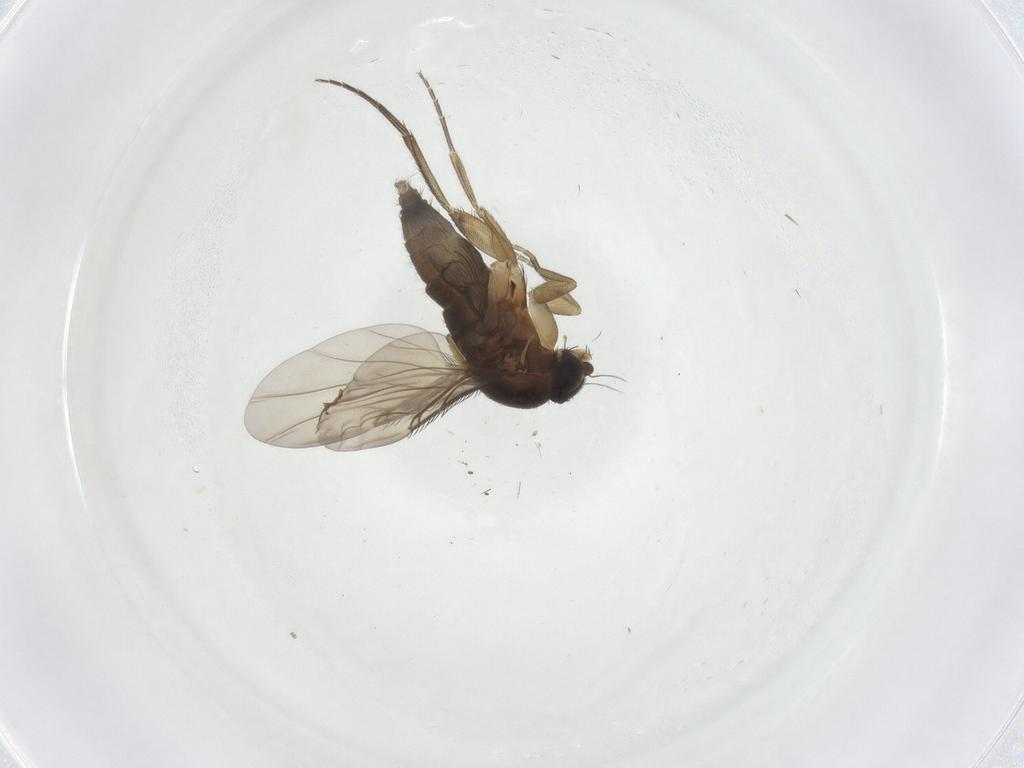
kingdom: Animalia
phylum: Arthropoda
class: Insecta
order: Diptera
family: Phoridae
